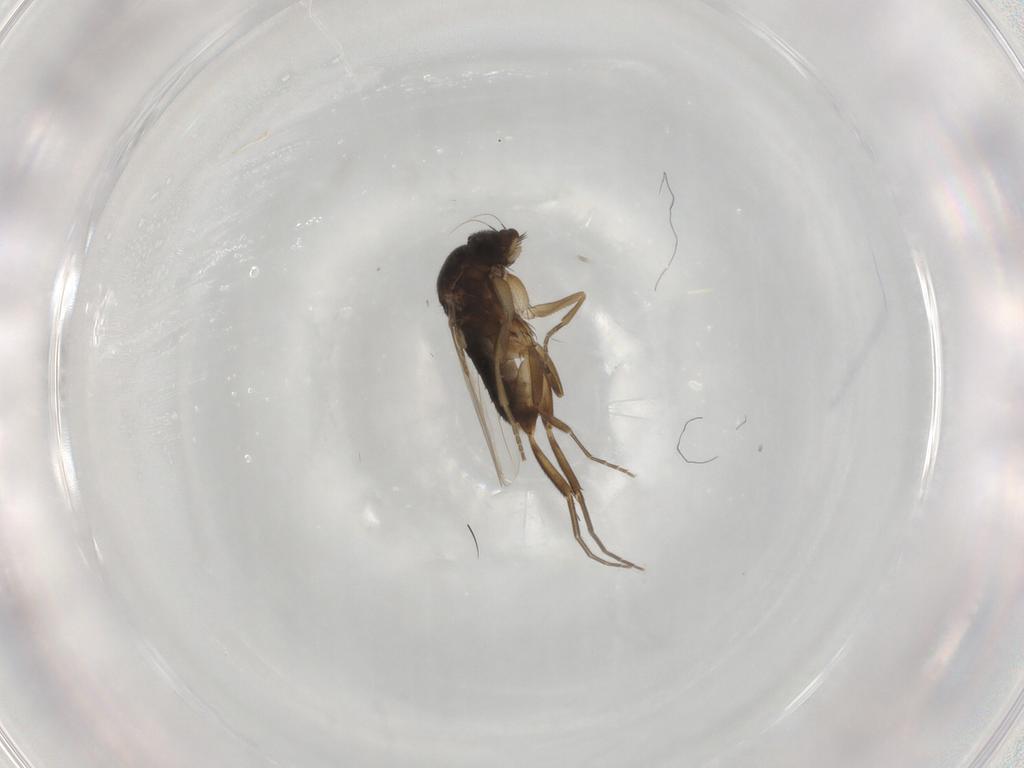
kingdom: Animalia
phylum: Arthropoda
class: Insecta
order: Diptera
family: Phoridae
